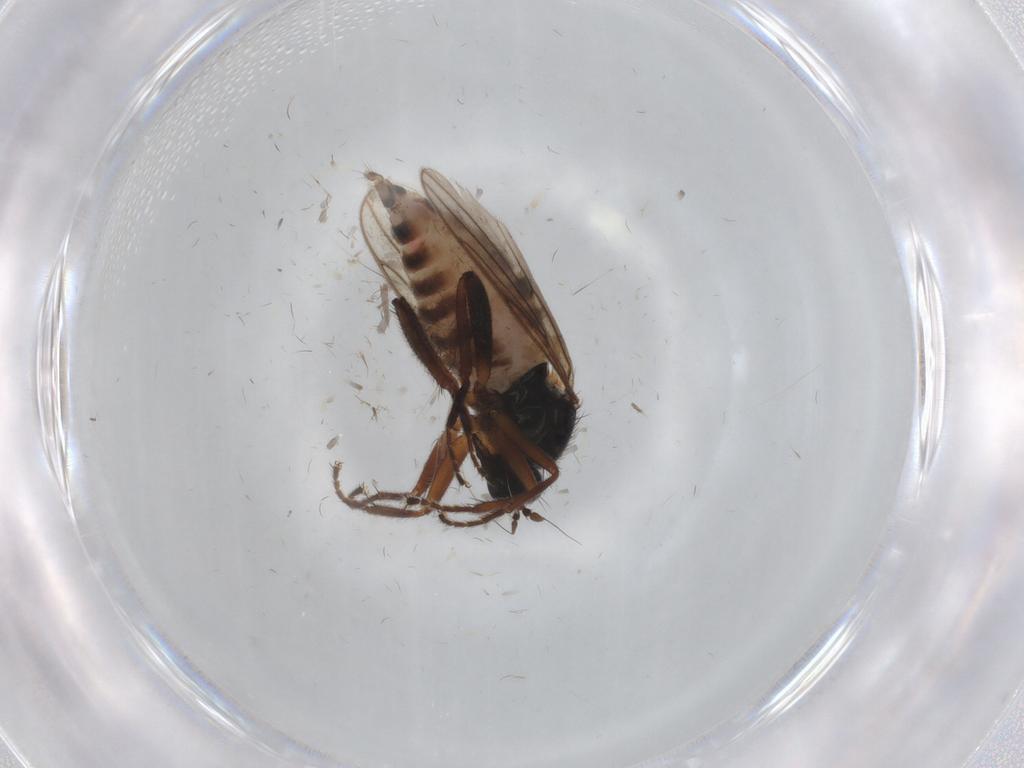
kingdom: Animalia
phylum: Arthropoda
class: Insecta
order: Diptera
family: Hybotidae
